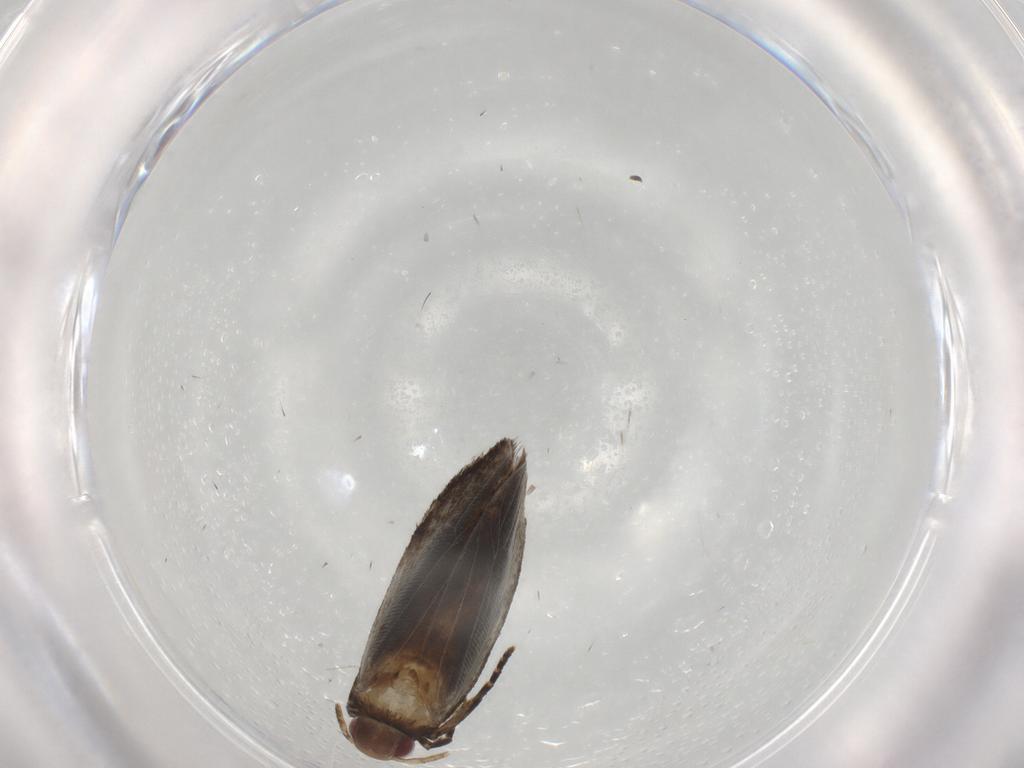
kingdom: Animalia
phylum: Arthropoda
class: Insecta
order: Lepidoptera
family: Gelechiidae
